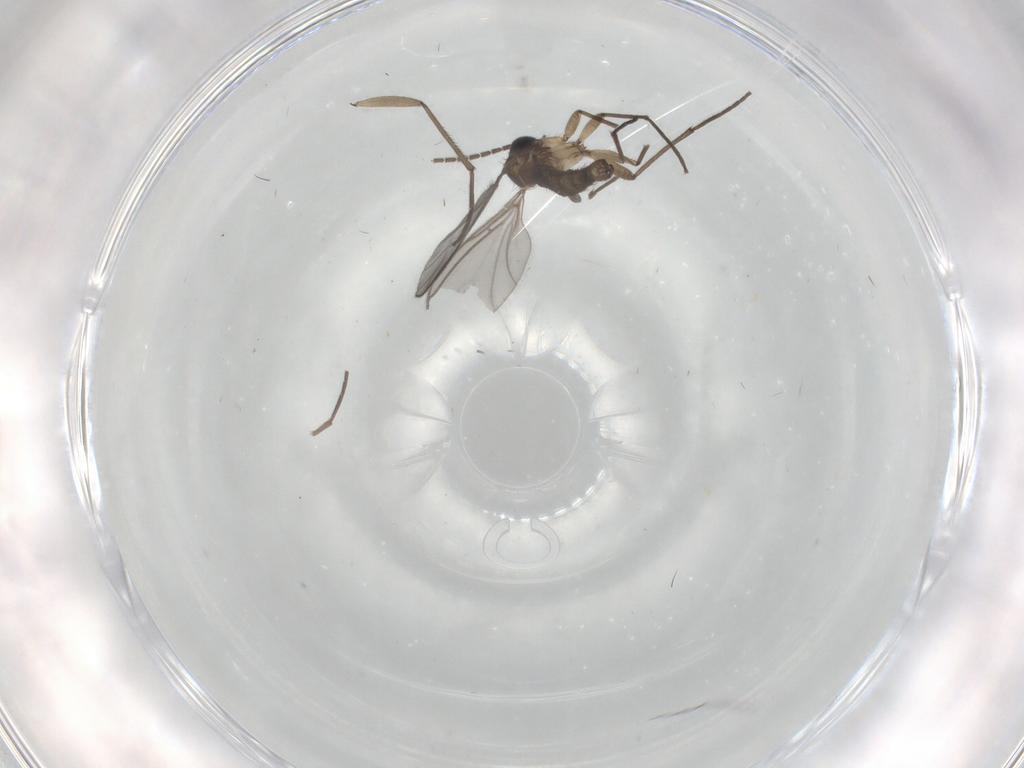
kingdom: Animalia
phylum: Arthropoda
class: Insecta
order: Diptera
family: Sciaridae
